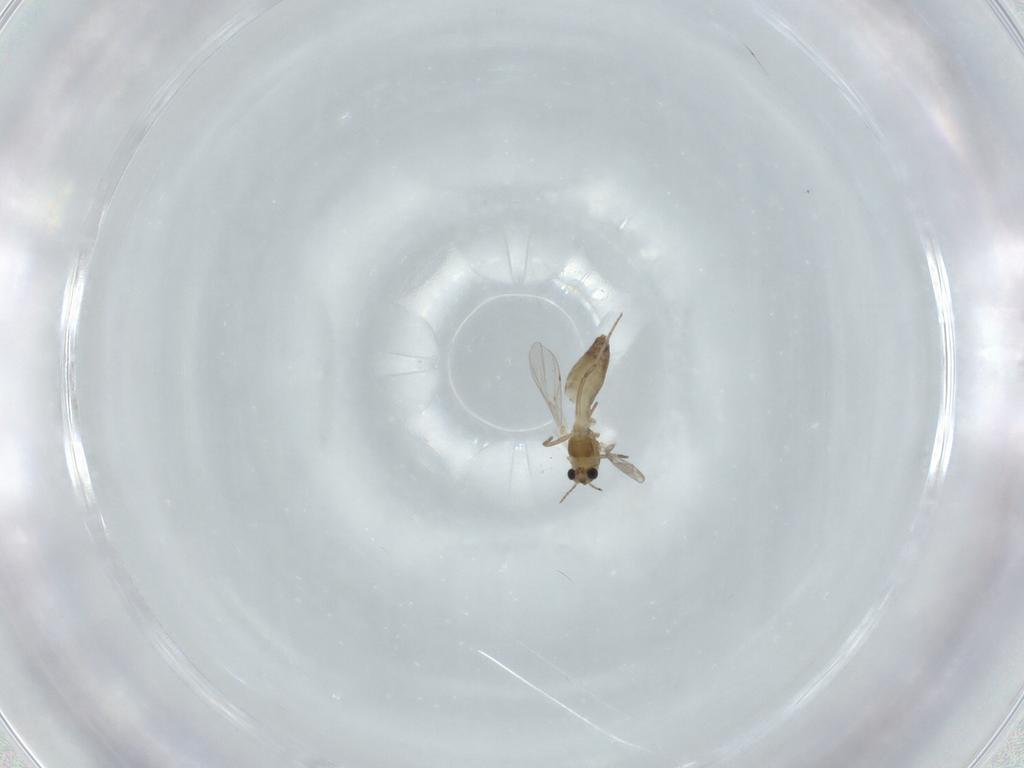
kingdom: Animalia
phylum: Arthropoda
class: Insecta
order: Diptera
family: Chironomidae
